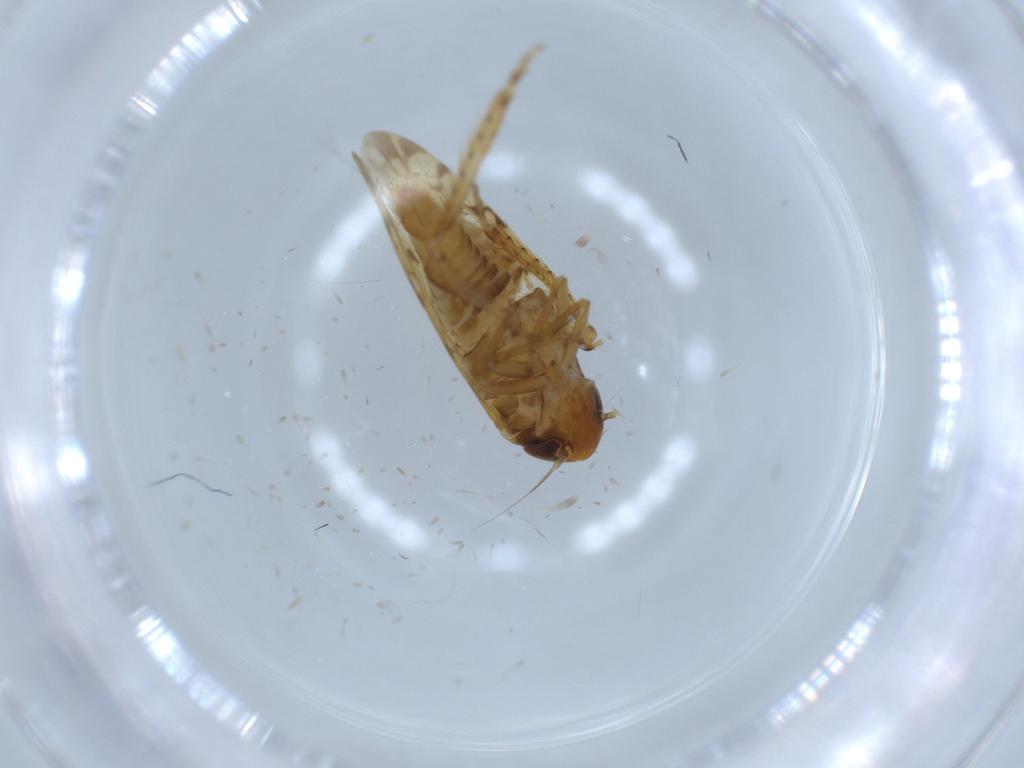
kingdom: Animalia
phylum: Arthropoda
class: Insecta
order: Hemiptera
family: Cicadellidae
